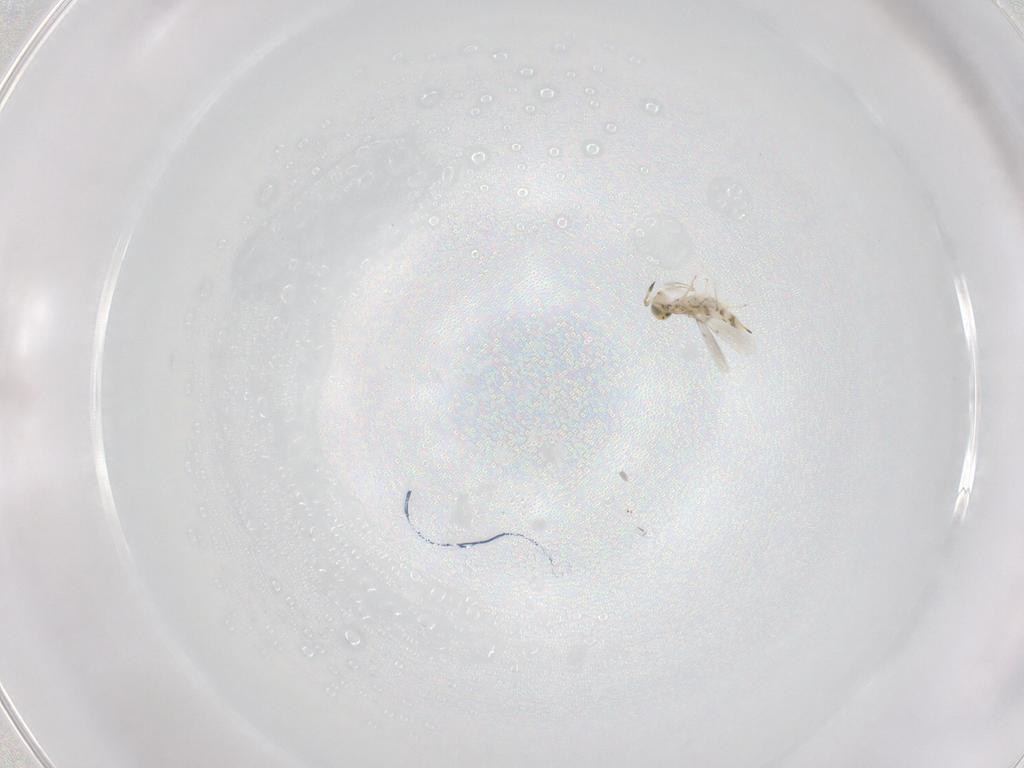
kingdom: Animalia
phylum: Arthropoda
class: Insecta
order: Hymenoptera
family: Aphelinidae
